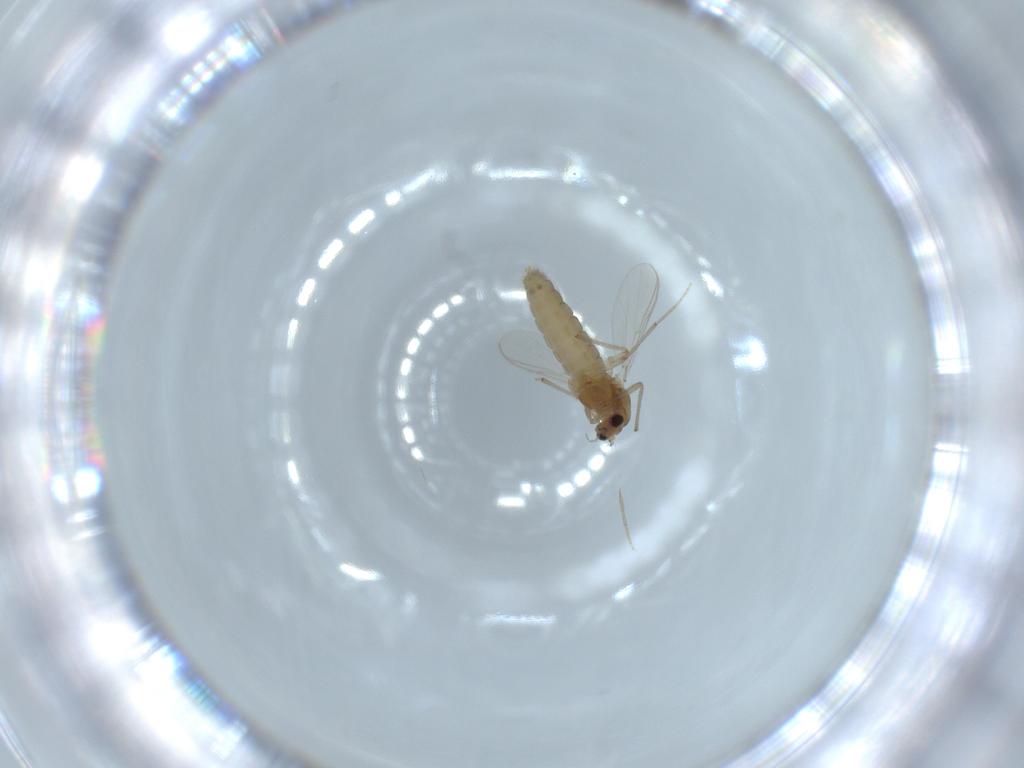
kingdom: Animalia
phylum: Arthropoda
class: Insecta
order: Diptera
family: Chironomidae
